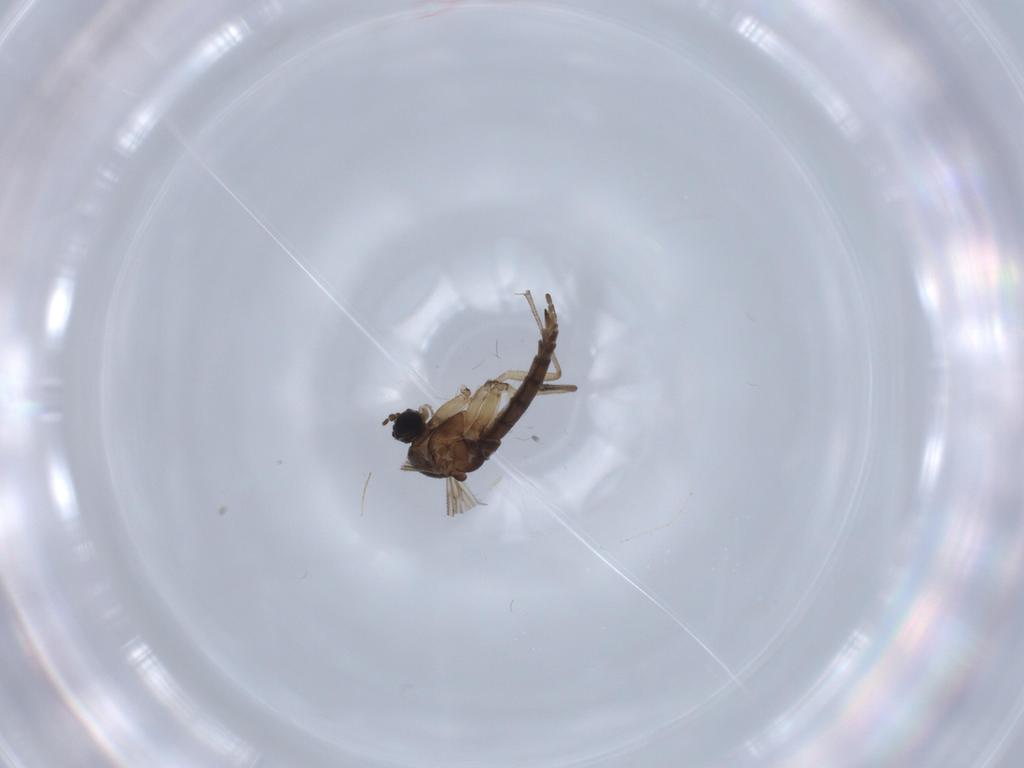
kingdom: Animalia
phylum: Arthropoda
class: Insecta
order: Diptera
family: Sciaridae
